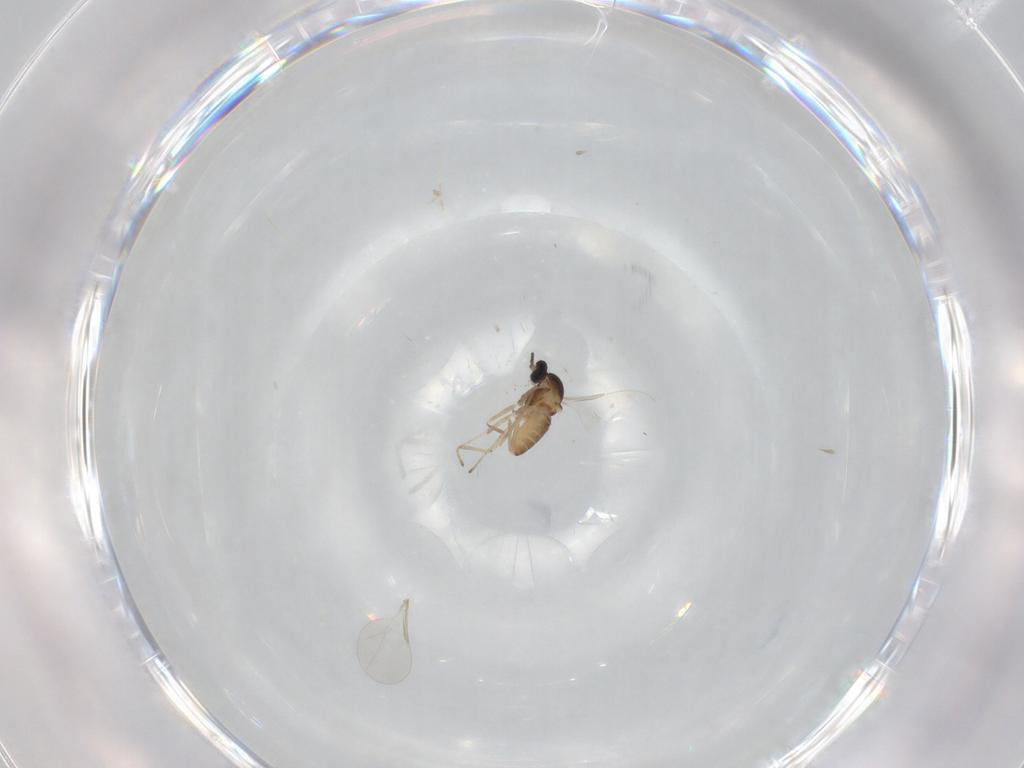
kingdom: Animalia
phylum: Arthropoda
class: Insecta
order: Diptera
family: Cecidomyiidae
